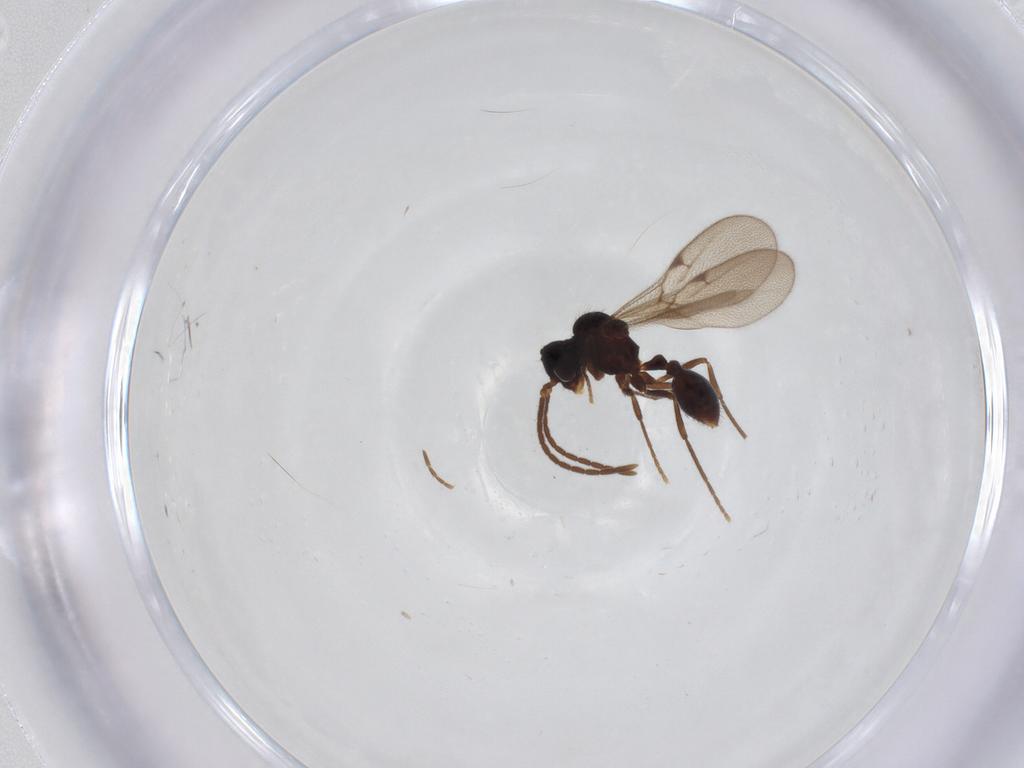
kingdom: Animalia
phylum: Arthropoda
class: Insecta
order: Hymenoptera
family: Formicidae
